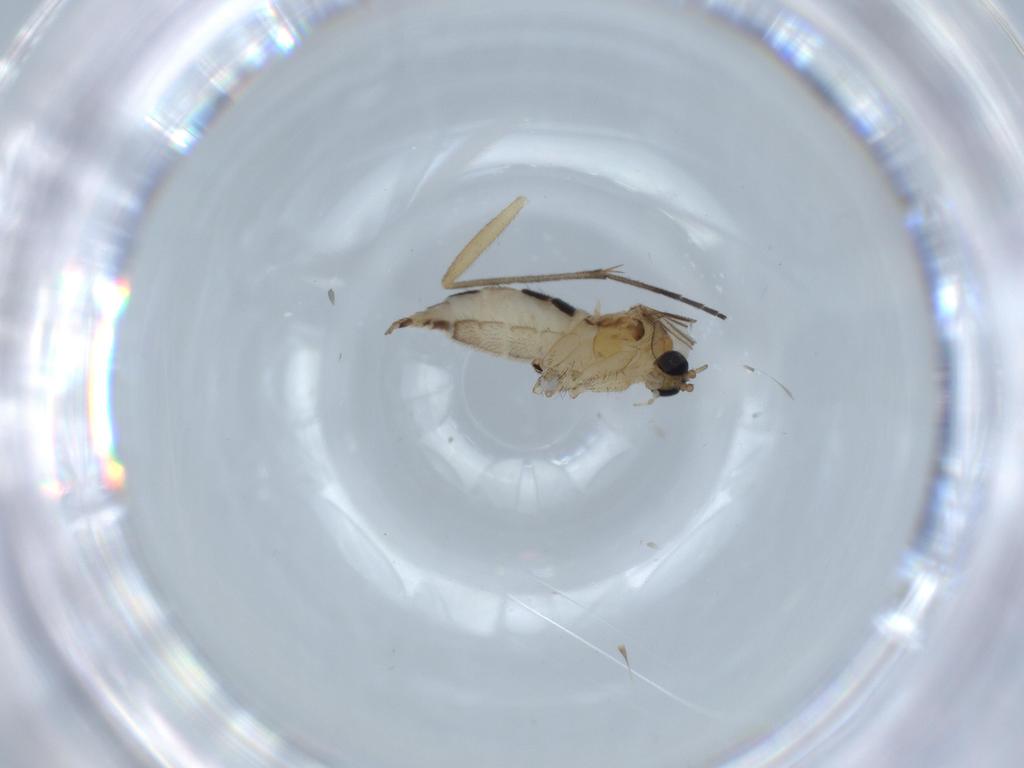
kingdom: Animalia
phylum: Arthropoda
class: Insecta
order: Diptera
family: Sciaridae
